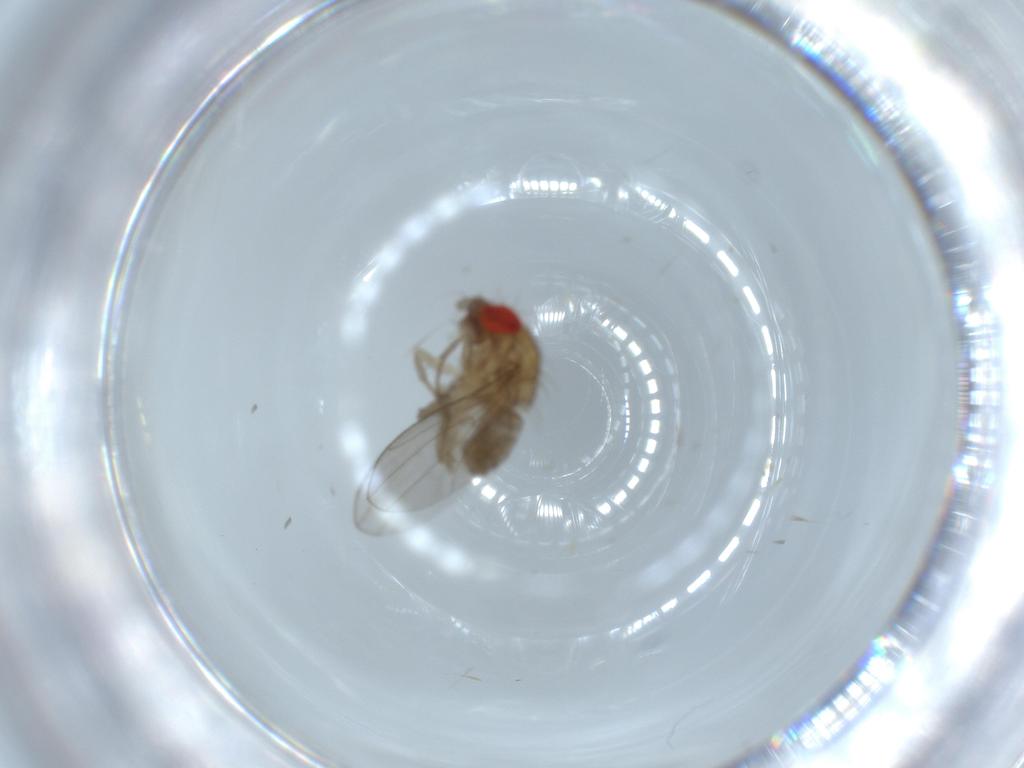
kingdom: Animalia
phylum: Arthropoda
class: Insecta
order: Diptera
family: Drosophilidae
